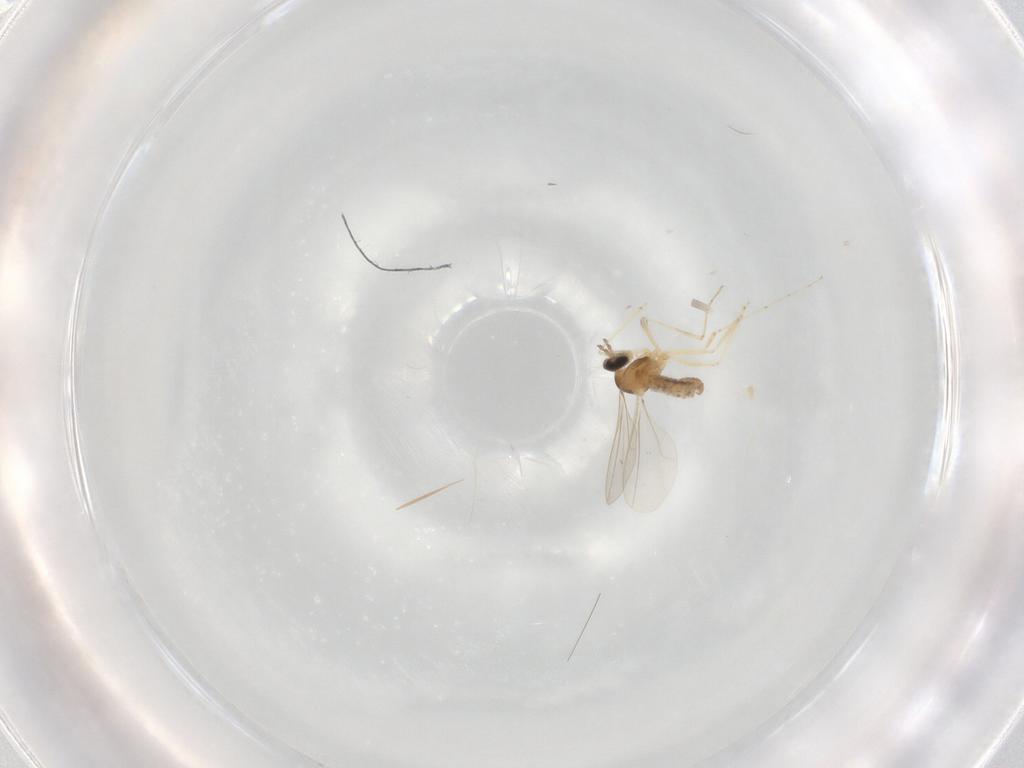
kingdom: Animalia
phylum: Arthropoda
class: Insecta
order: Diptera
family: Cecidomyiidae
